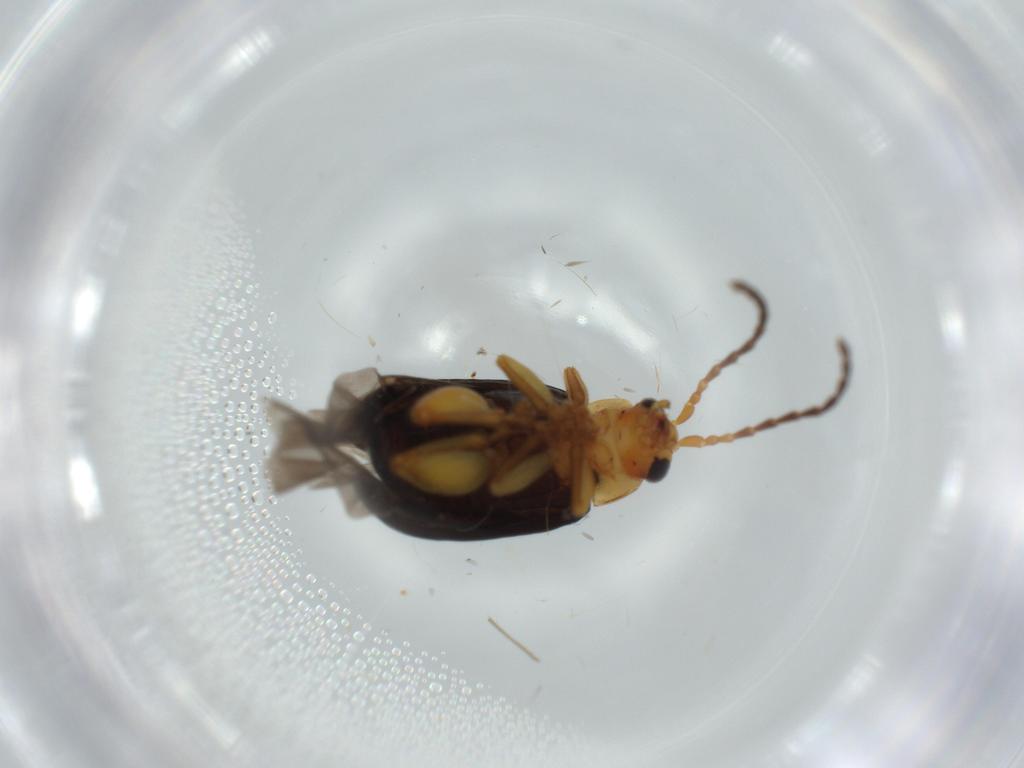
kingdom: Animalia
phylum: Arthropoda
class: Insecta
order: Coleoptera
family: Chrysomelidae
